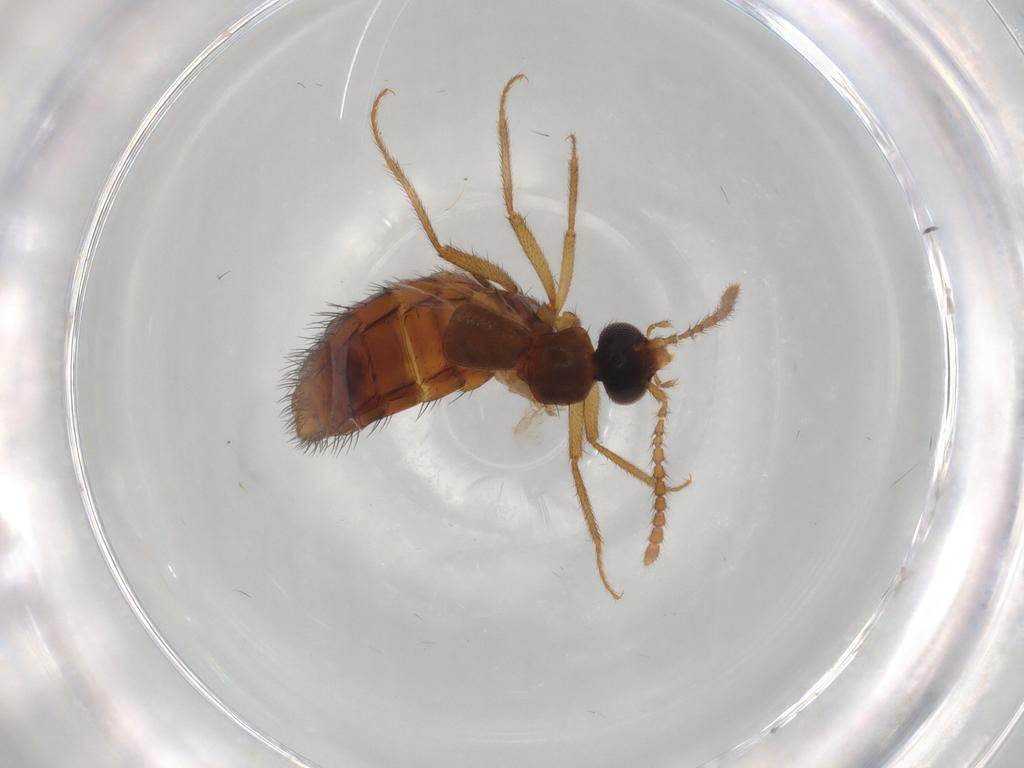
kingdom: Animalia
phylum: Arthropoda
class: Insecta
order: Coleoptera
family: Staphylinidae
